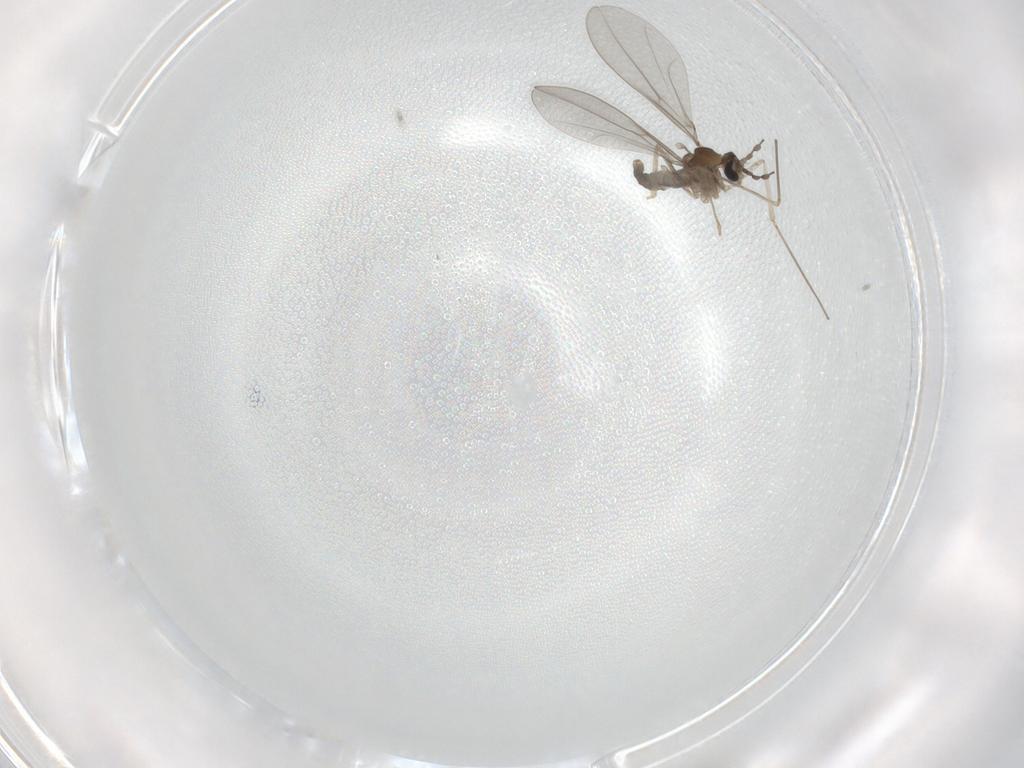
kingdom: Animalia
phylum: Arthropoda
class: Insecta
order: Diptera
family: Cecidomyiidae
